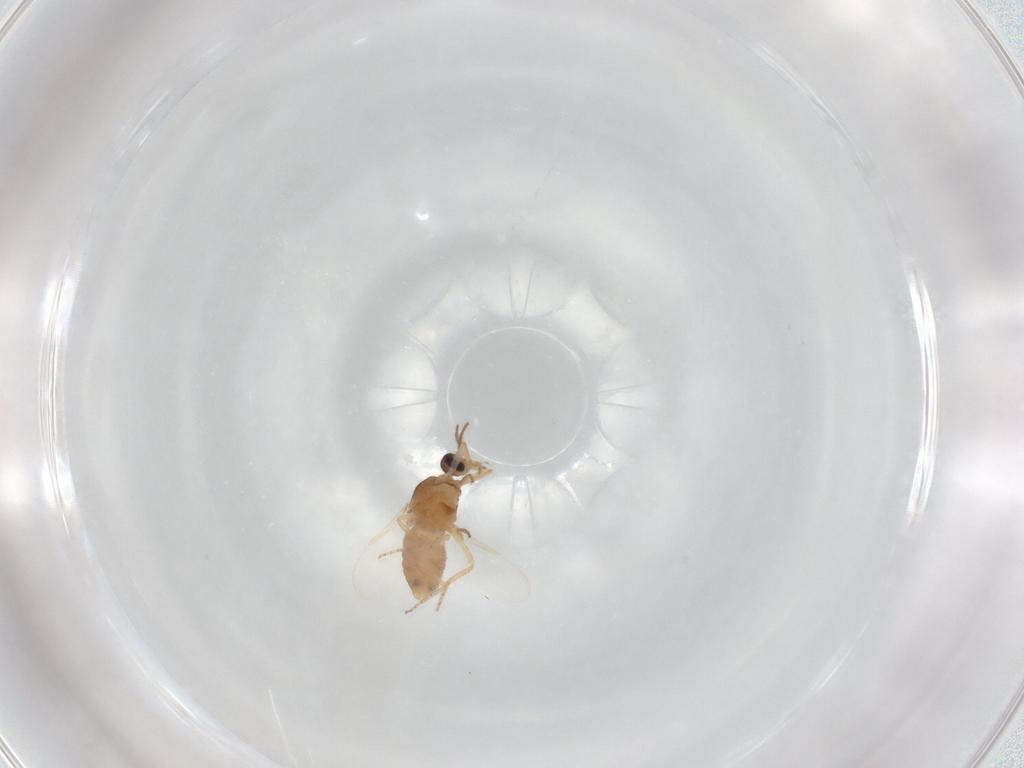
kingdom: Animalia
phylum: Arthropoda
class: Insecta
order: Diptera
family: Sciaridae
